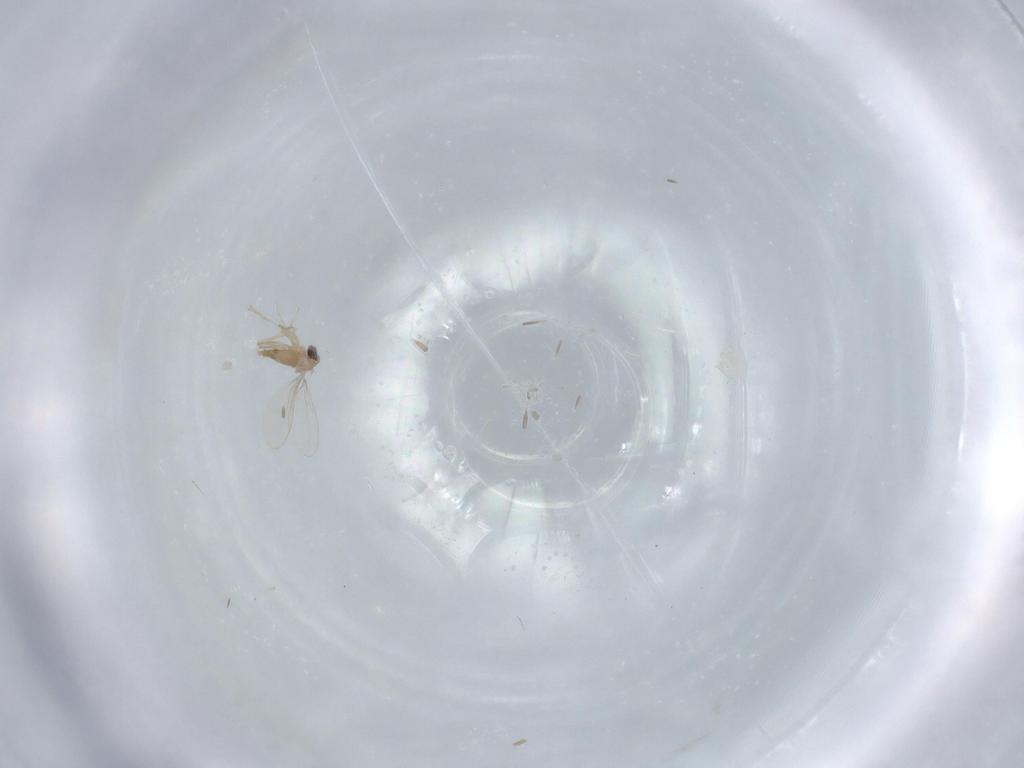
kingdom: Animalia
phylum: Arthropoda
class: Insecta
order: Diptera
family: Cecidomyiidae
